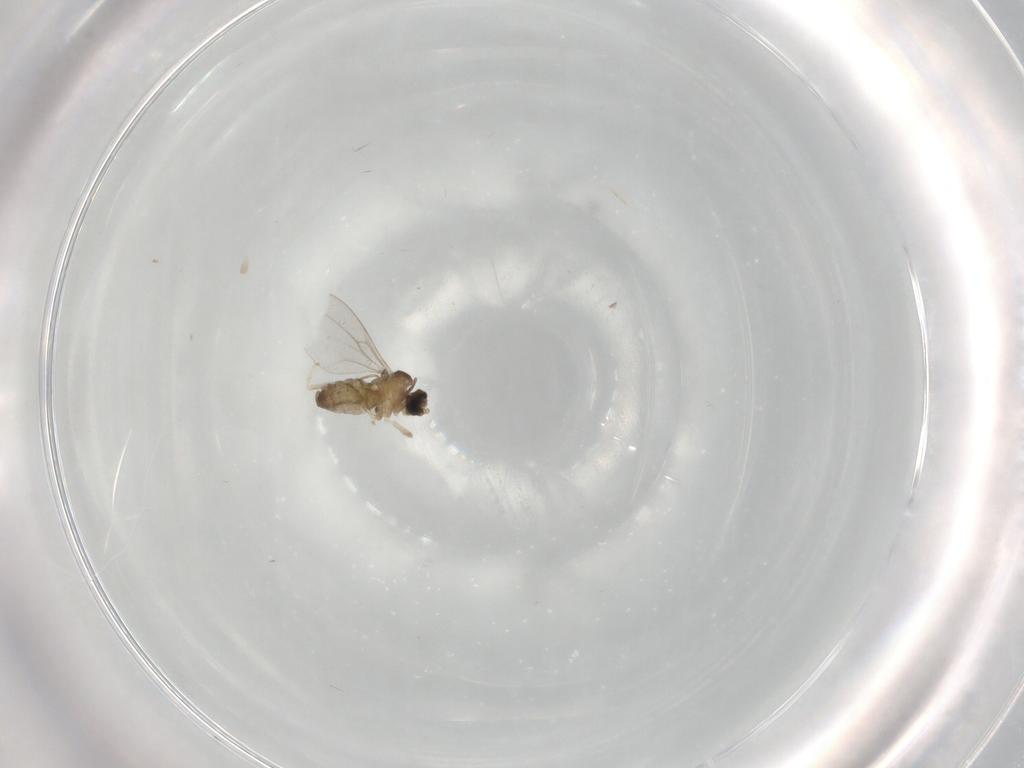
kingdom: Animalia
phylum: Arthropoda
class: Insecta
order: Diptera
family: Cecidomyiidae
